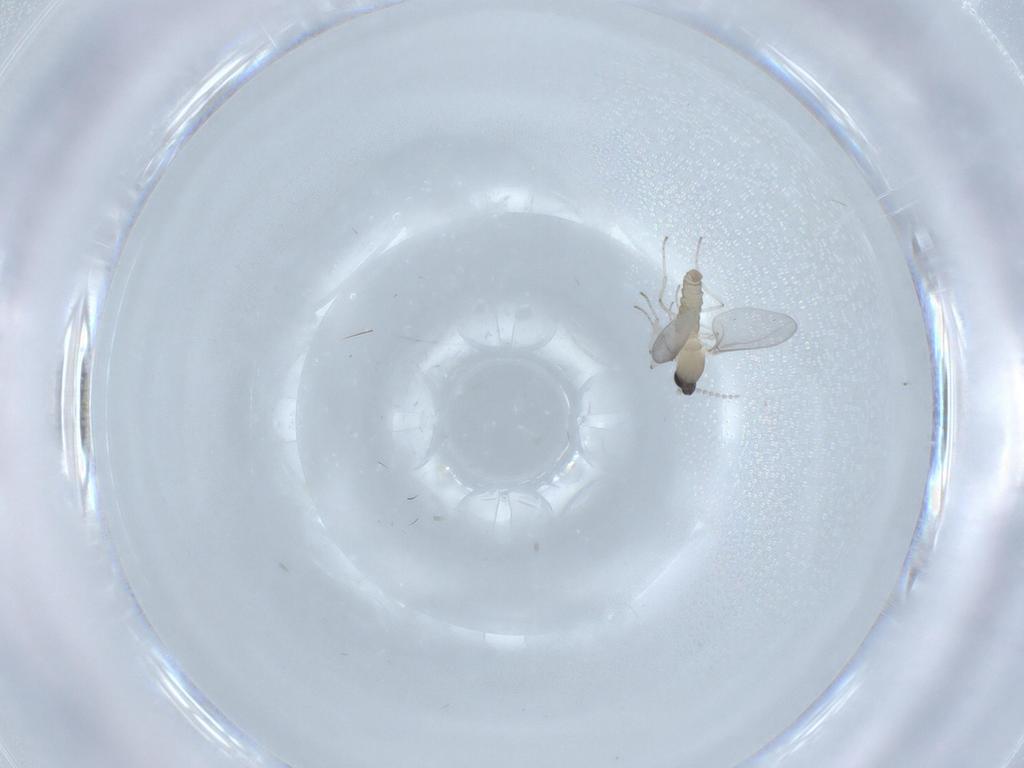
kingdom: Animalia
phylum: Arthropoda
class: Insecta
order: Diptera
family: Cecidomyiidae
